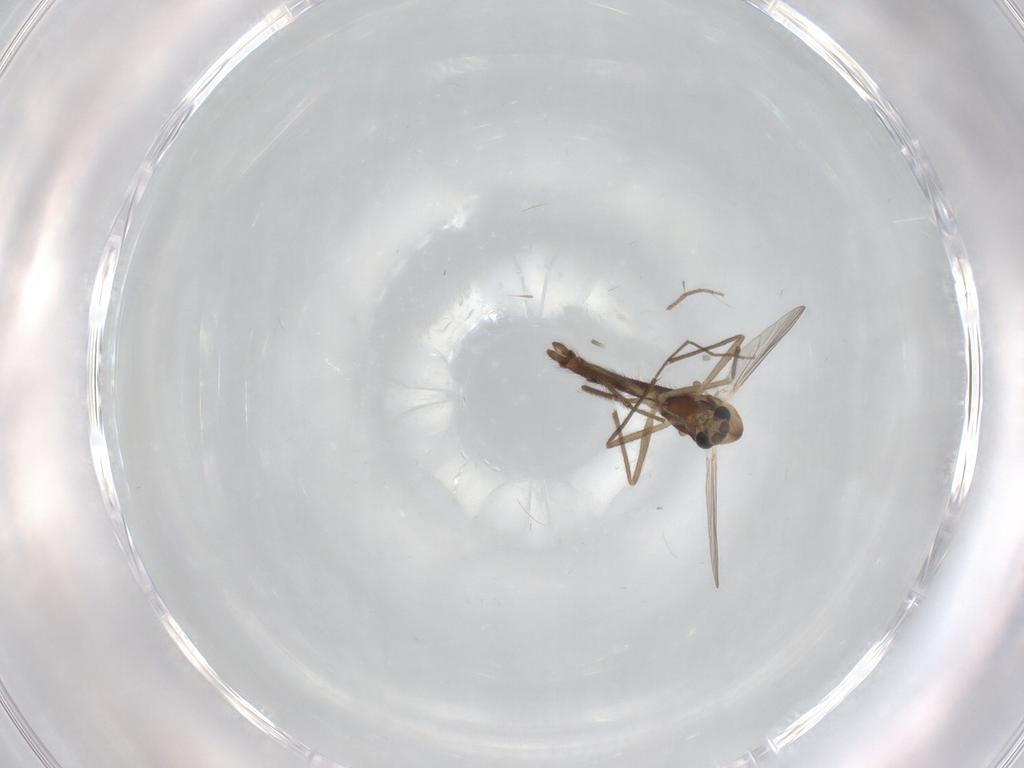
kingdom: Animalia
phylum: Arthropoda
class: Insecta
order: Diptera
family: Chironomidae
